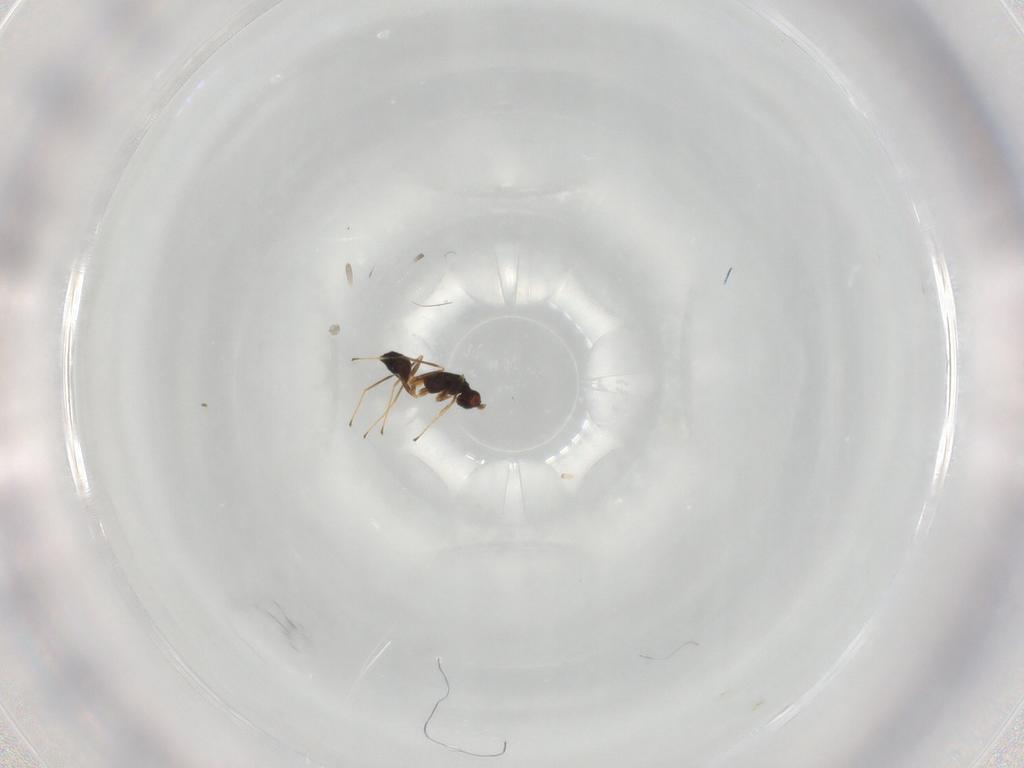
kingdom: Animalia
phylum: Arthropoda
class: Insecta
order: Hymenoptera
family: Mymaridae
